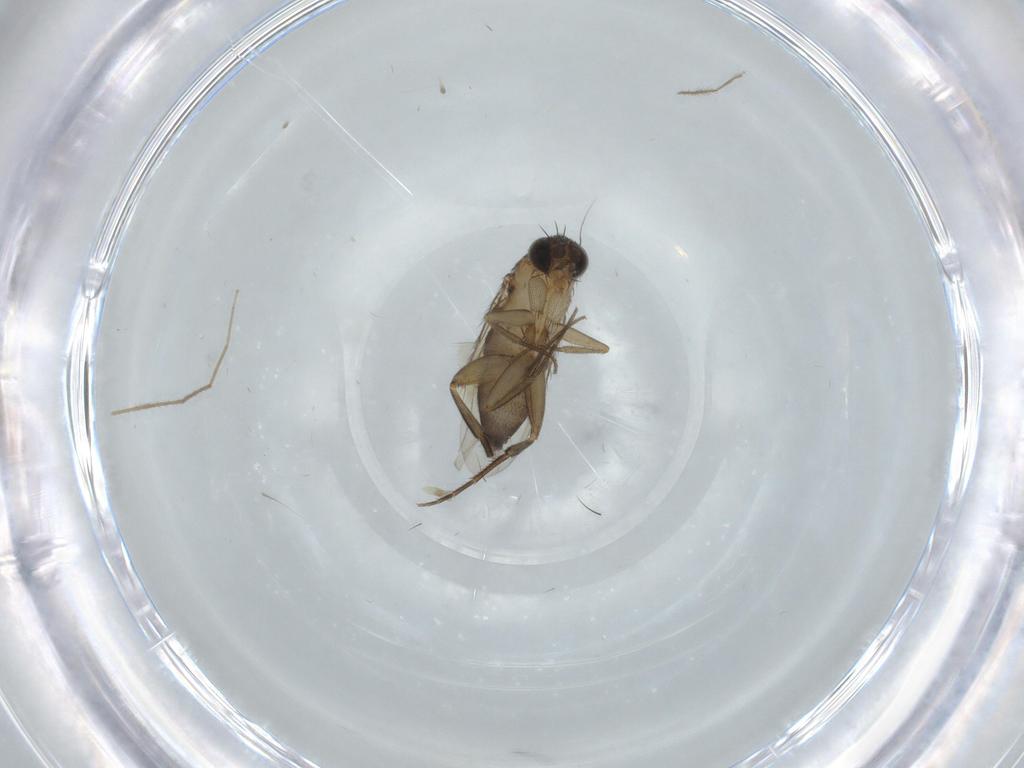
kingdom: Animalia
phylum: Arthropoda
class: Insecta
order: Diptera
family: Phoridae
